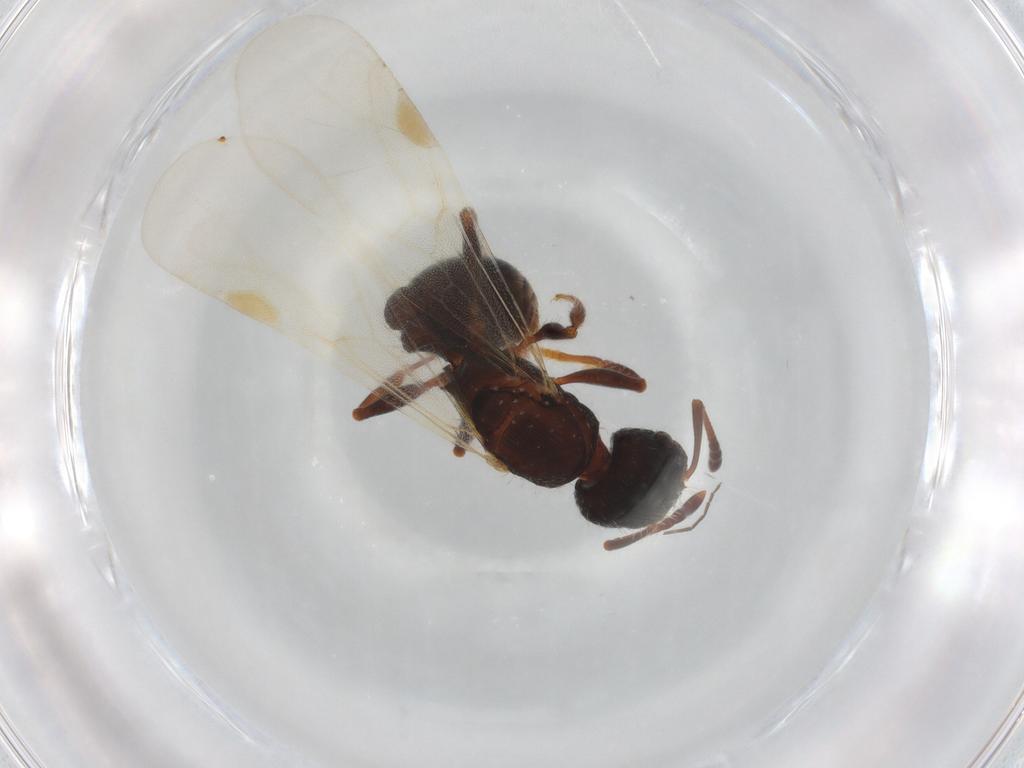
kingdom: Animalia
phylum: Arthropoda
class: Insecta
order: Hymenoptera
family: Formicidae
